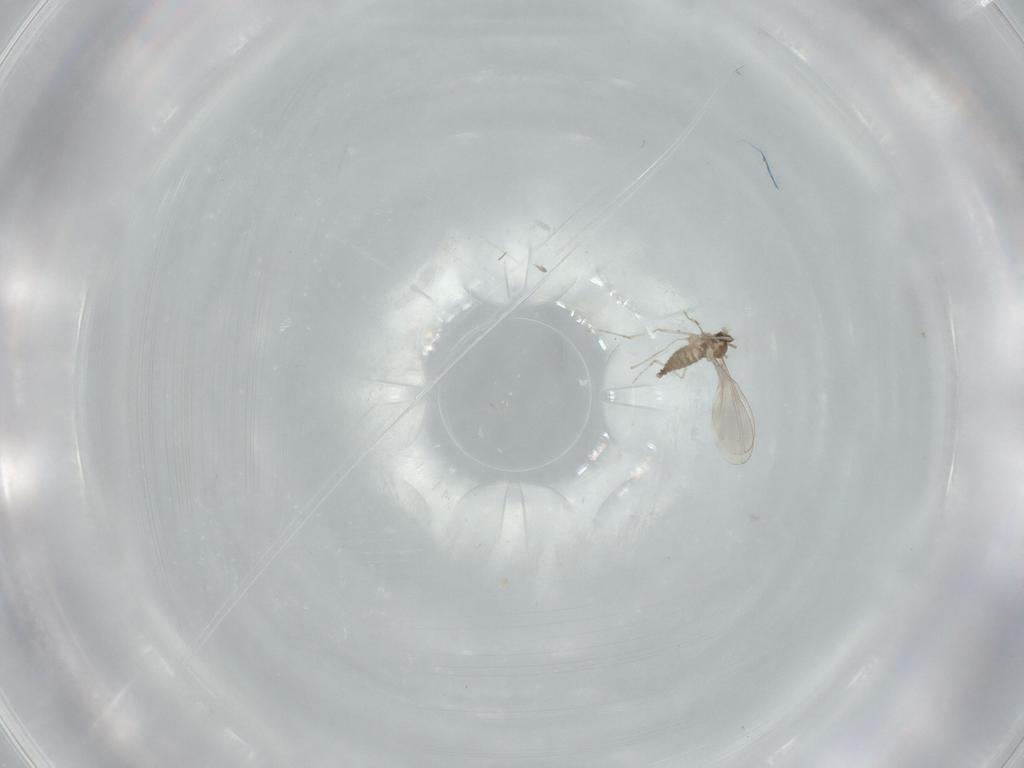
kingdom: Animalia
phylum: Arthropoda
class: Insecta
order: Diptera
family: Cecidomyiidae
